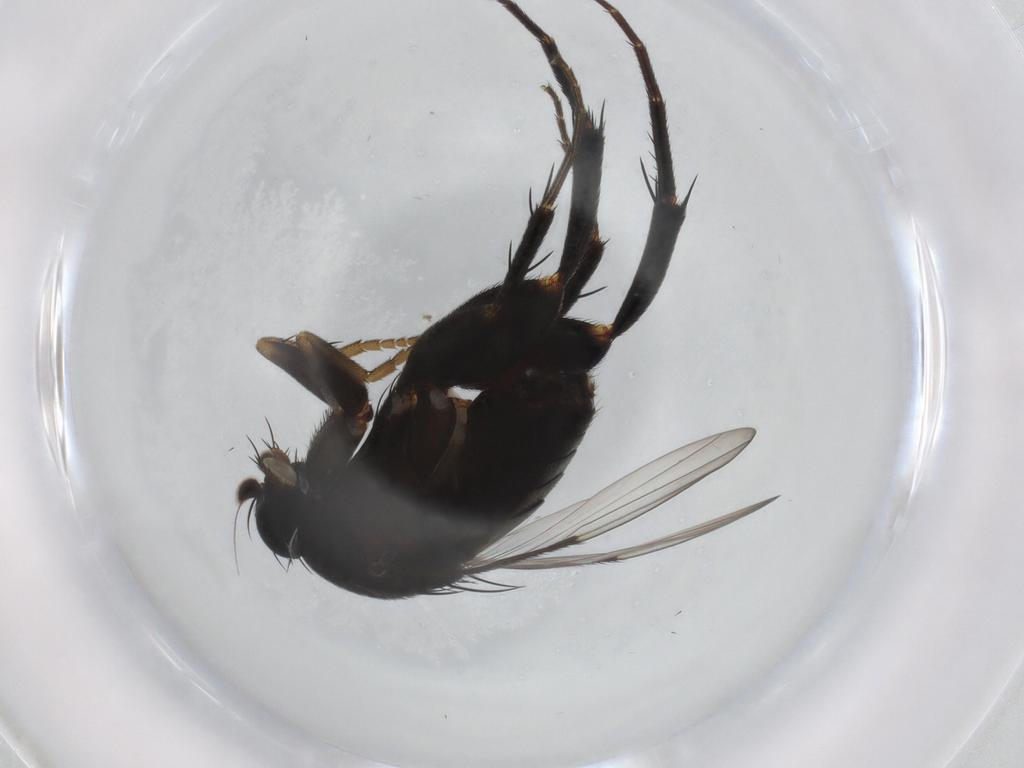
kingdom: Animalia
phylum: Arthropoda
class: Insecta
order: Diptera
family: Phoridae
